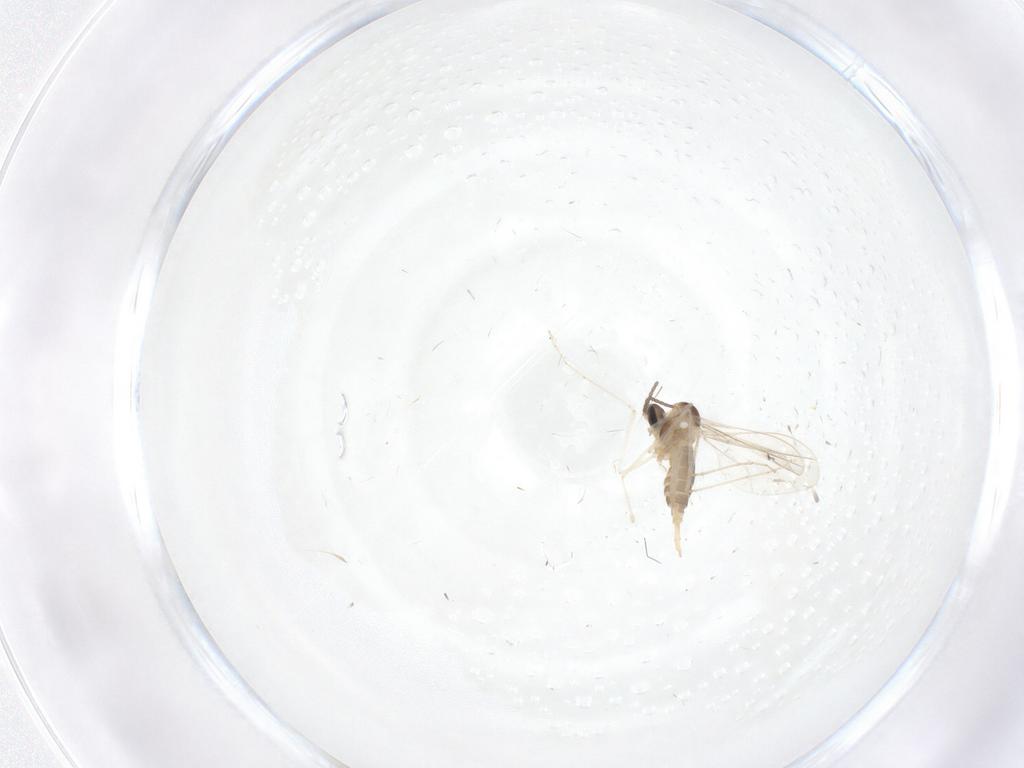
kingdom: Animalia
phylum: Arthropoda
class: Insecta
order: Diptera
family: Cecidomyiidae
